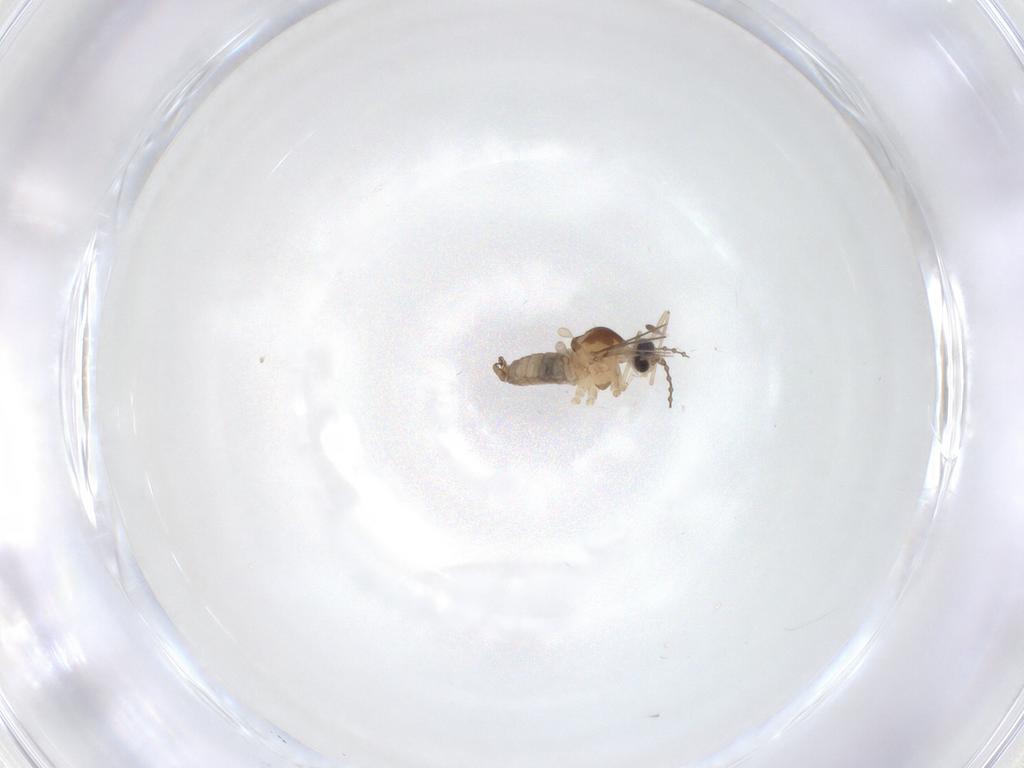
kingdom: Animalia
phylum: Arthropoda
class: Insecta
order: Diptera
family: Cecidomyiidae
